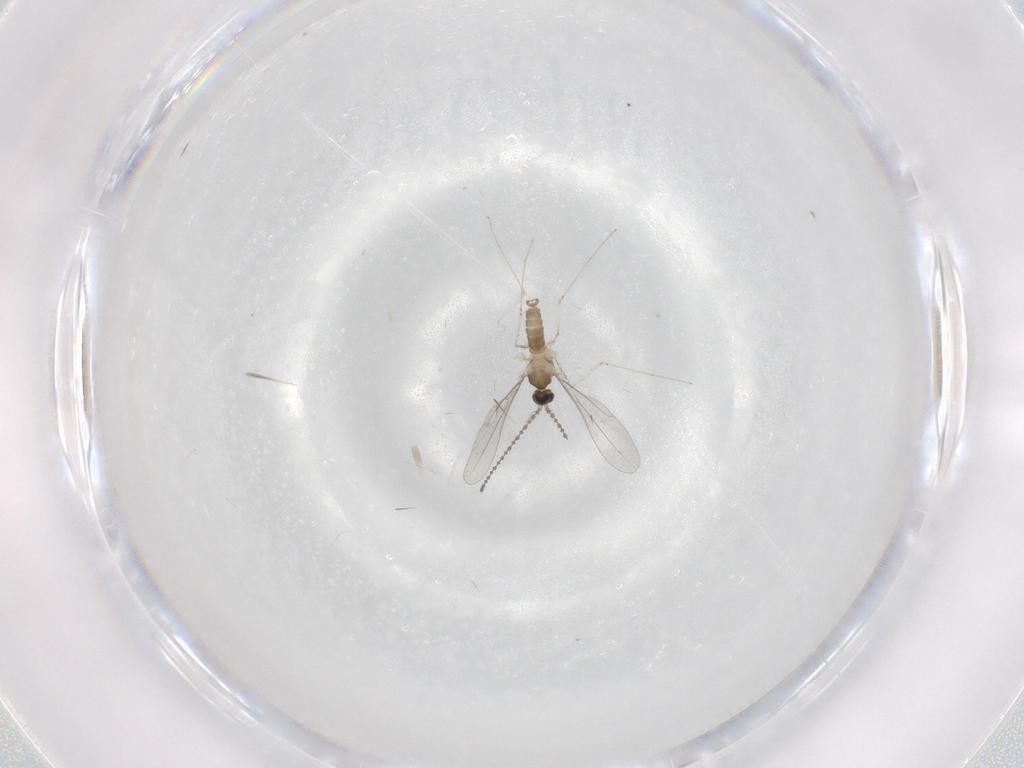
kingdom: Animalia
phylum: Arthropoda
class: Insecta
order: Diptera
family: Cecidomyiidae
